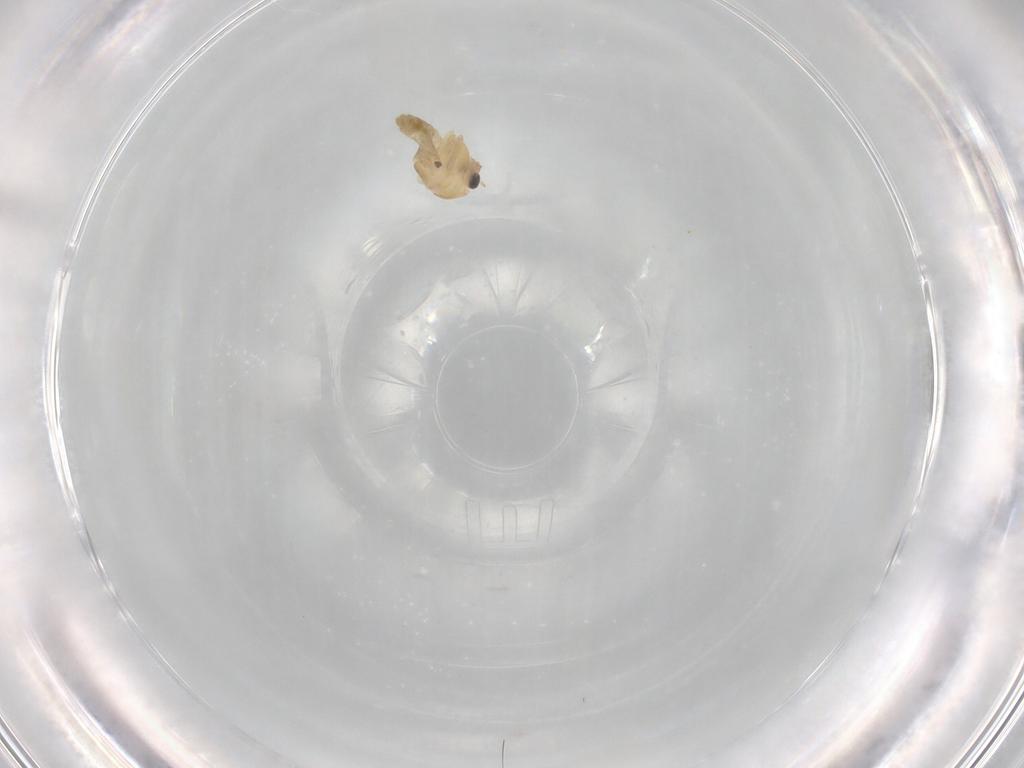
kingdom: Animalia
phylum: Arthropoda
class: Insecta
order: Diptera
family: Chironomidae
